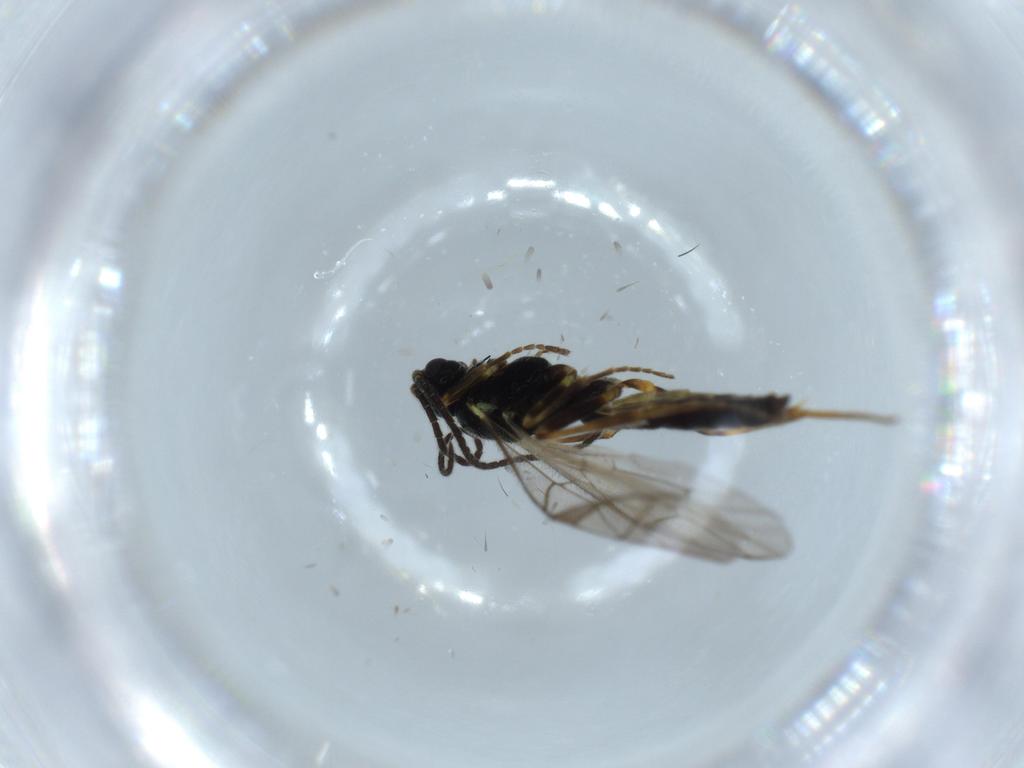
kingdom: Animalia
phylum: Arthropoda
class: Insecta
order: Hymenoptera
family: Ichneumonidae
